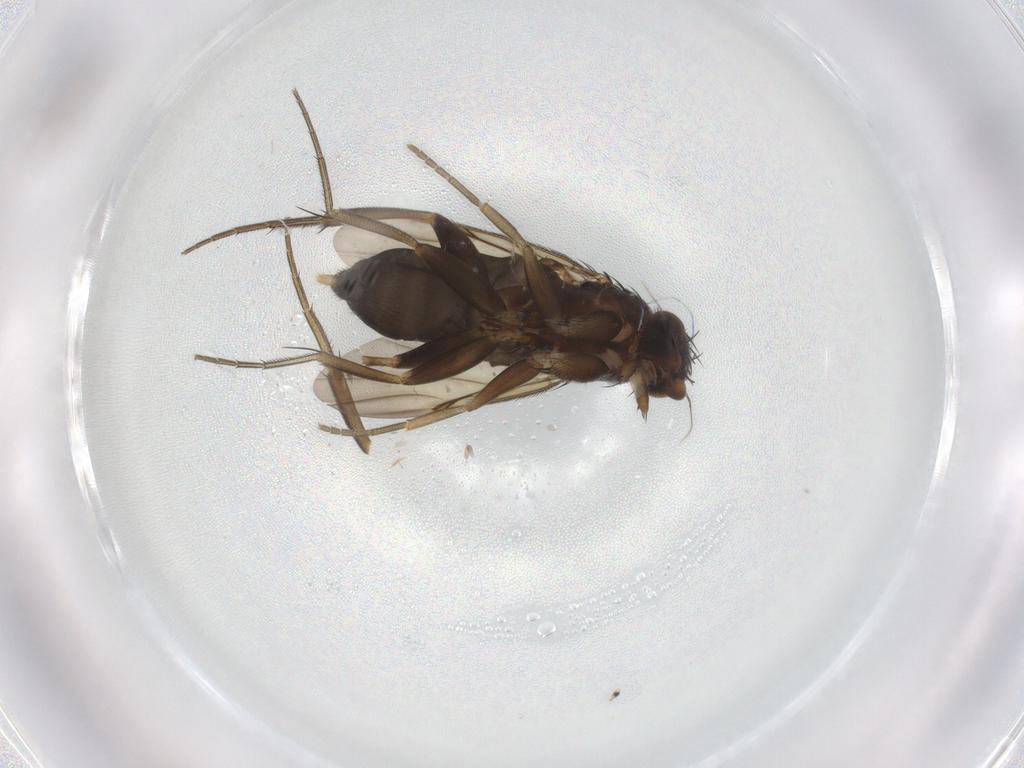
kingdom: Animalia
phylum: Arthropoda
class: Insecta
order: Diptera
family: Phoridae
